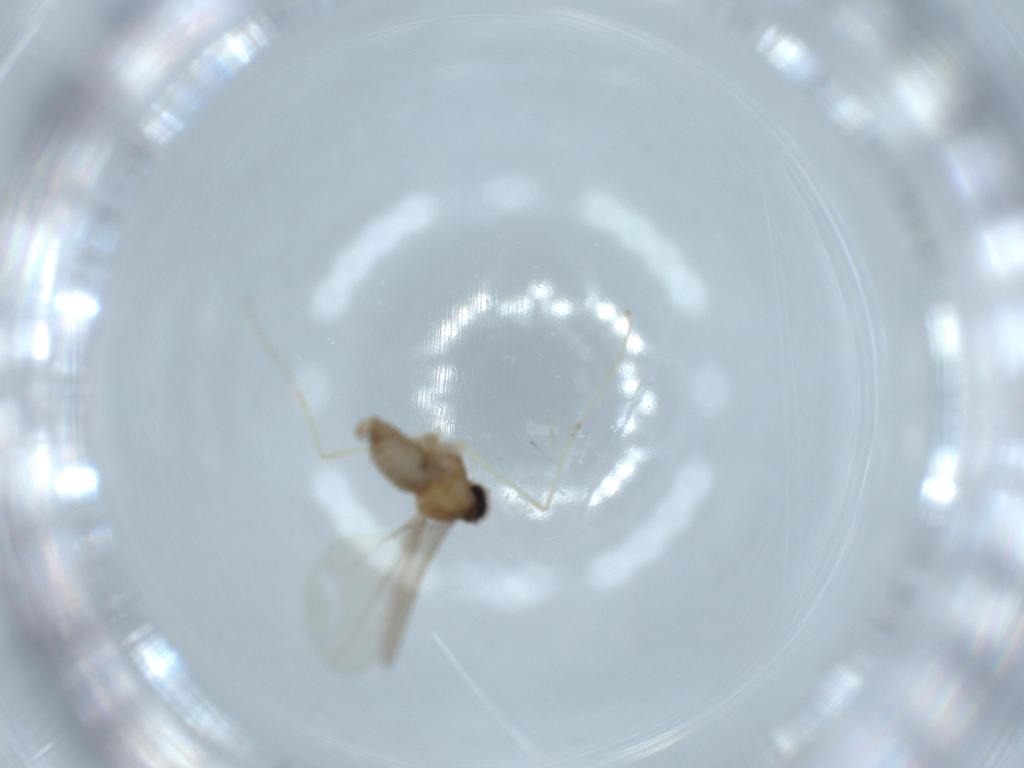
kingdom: Animalia
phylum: Arthropoda
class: Insecta
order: Diptera
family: Cecidomyiidae
